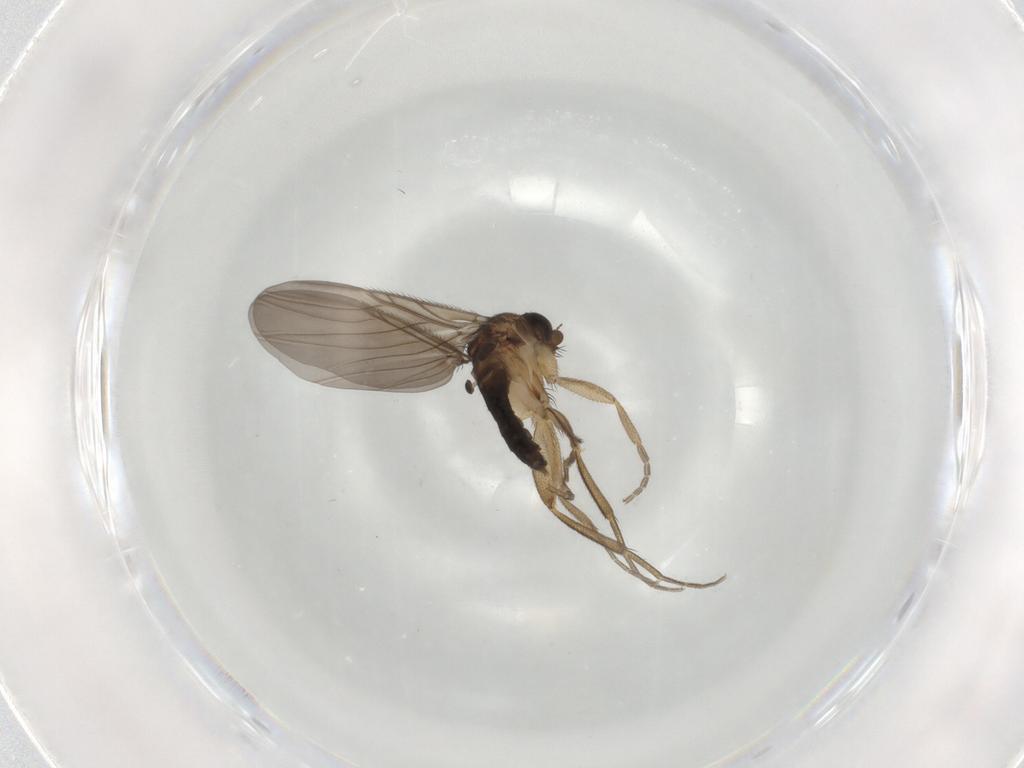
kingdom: Animalia
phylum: Arthropoda
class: Insecta
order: Diptera
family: Phoridae
